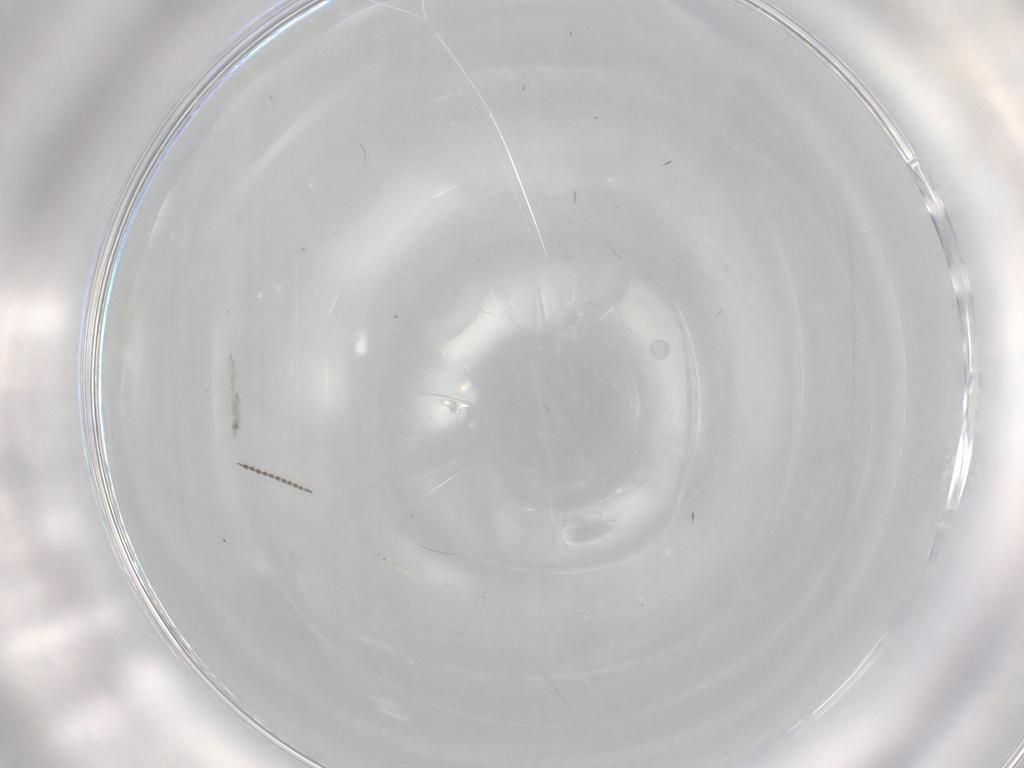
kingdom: Animalia
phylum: Arthropoda
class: Insecta
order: Diptera
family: Sciaridae
